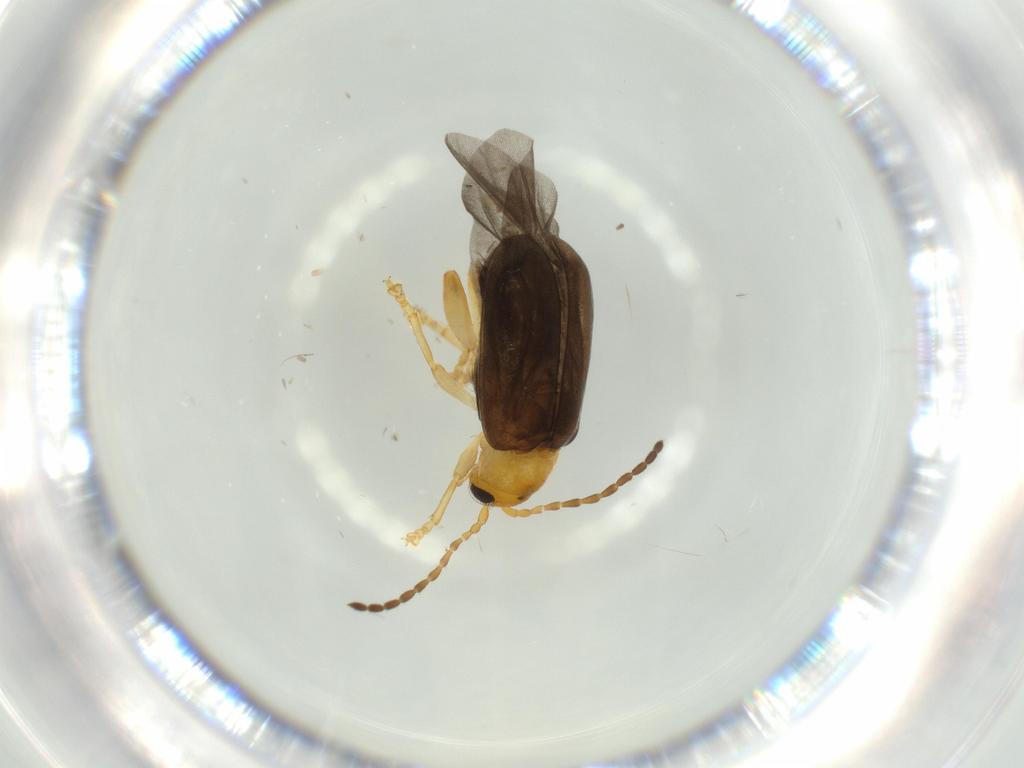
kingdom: Animalia
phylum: Arthropoda
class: Insecta
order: Coleoptera
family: Chrysomelidae
